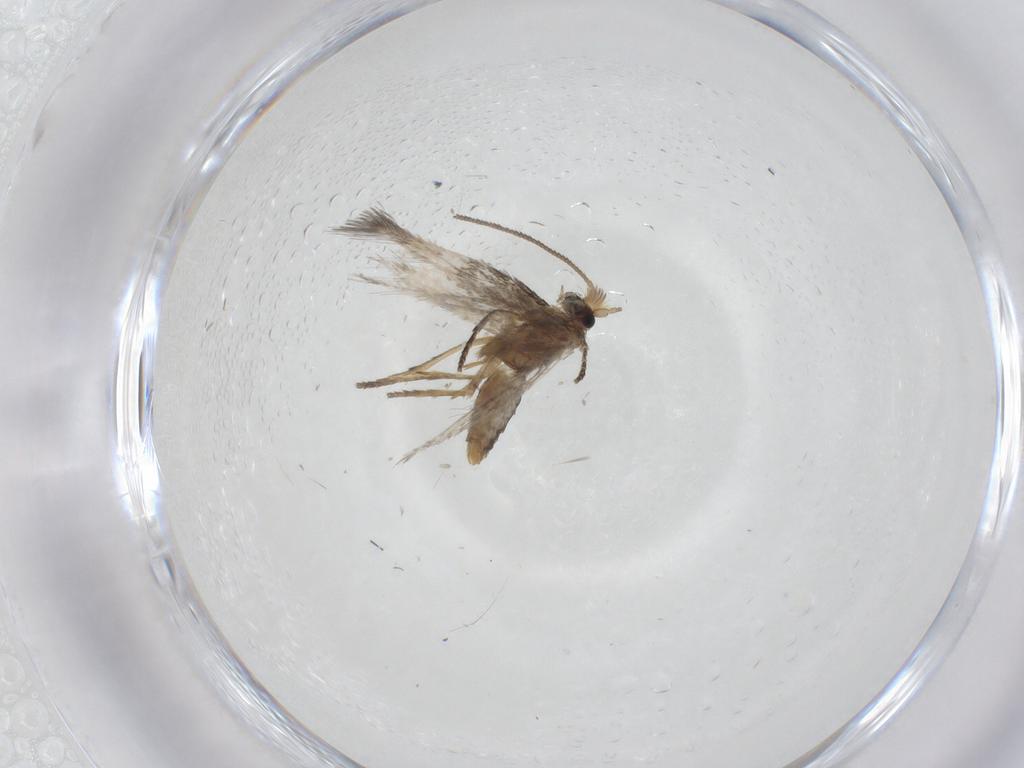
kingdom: Animalia
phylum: Arthropoda
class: Insecta
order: Lepidoptera
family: Nepticulidae
